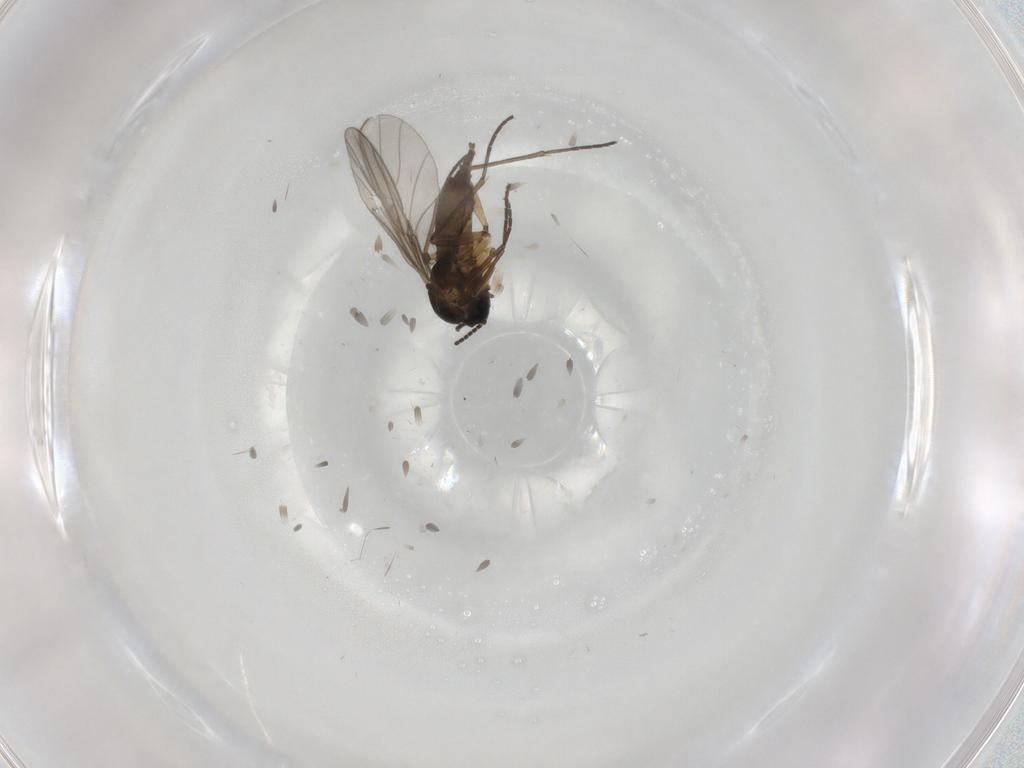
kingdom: Animalia
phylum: Arthropoda
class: Insecta
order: Diptera
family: Sciaridae
